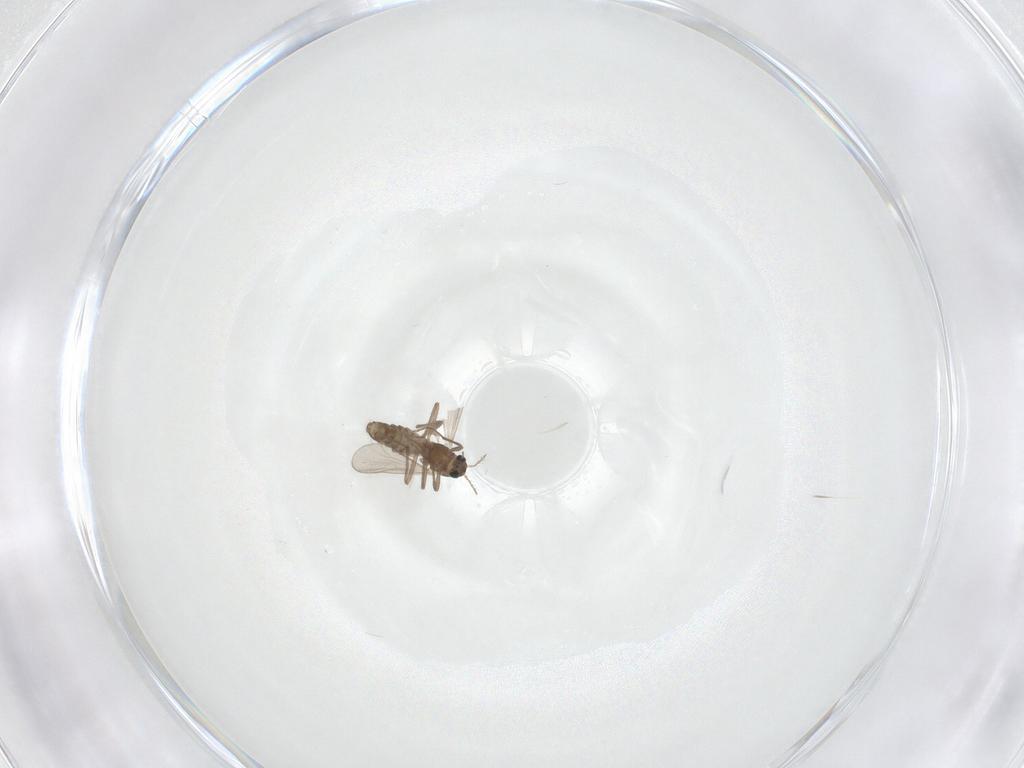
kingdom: Animalia
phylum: Arthropoda
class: Insecta
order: Diptera
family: Chironomidae
